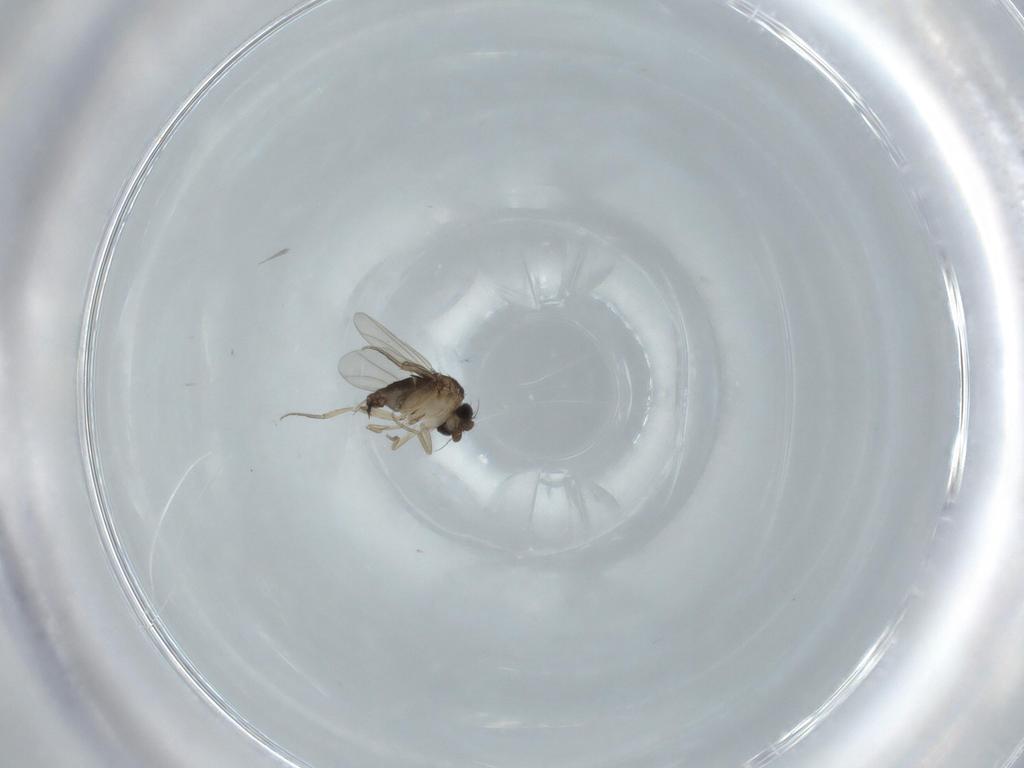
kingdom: Animalia
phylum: Arthropoda
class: Insecta
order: Diptera
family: Phoridae
